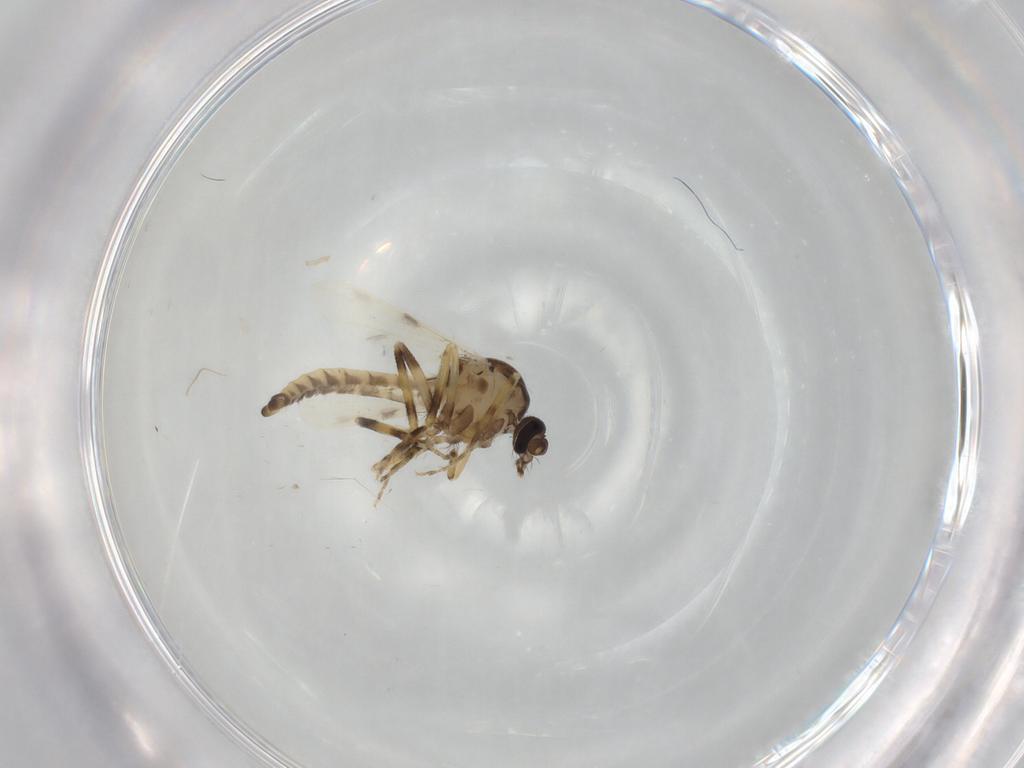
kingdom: Animalia
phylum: Arthropoda
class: Insecta
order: Diptera
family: Ceratopogonidae
